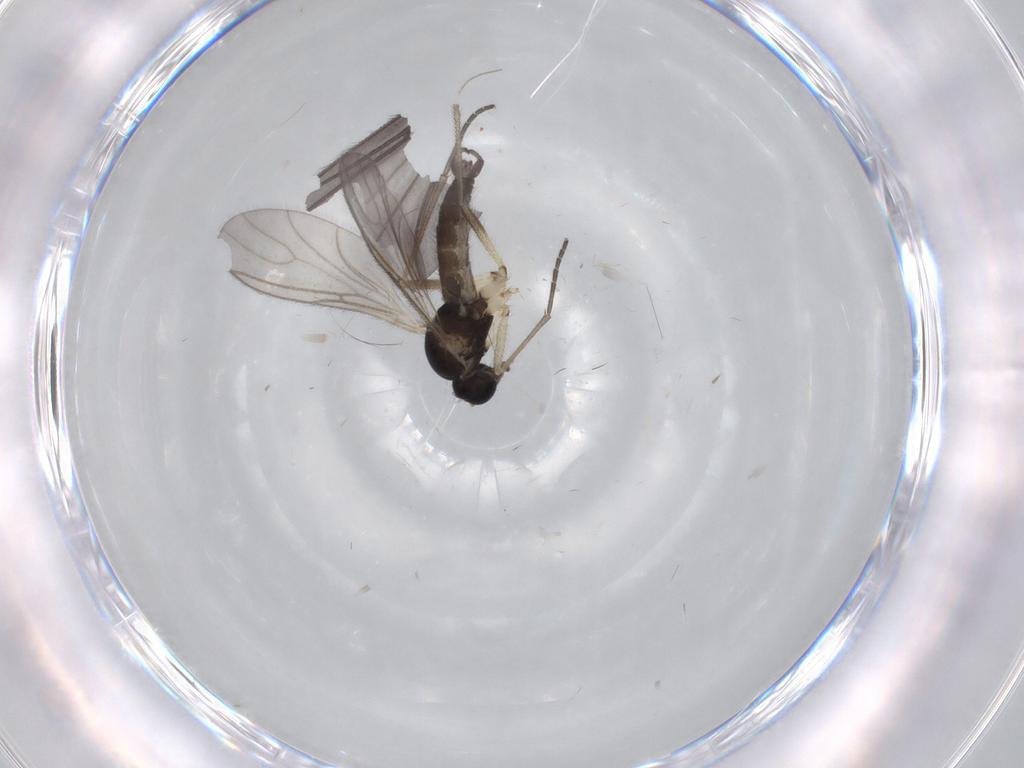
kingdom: Animalia
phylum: Arthropoda
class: Insecta
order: Diptera
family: Sciaridae
